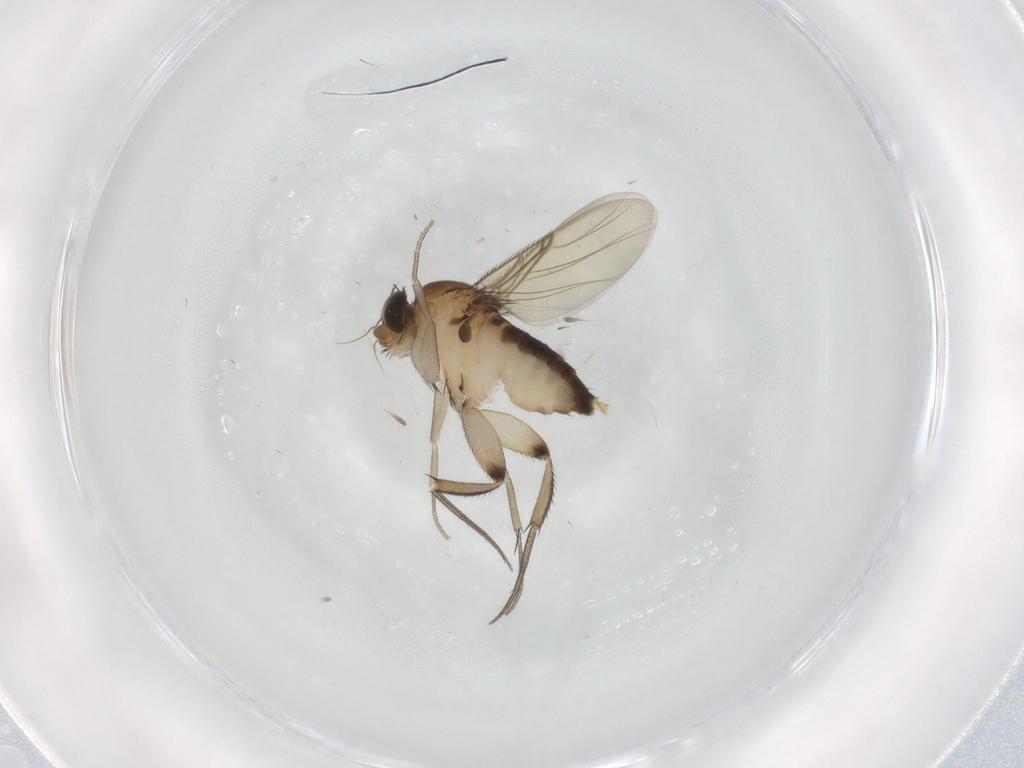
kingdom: Animalia
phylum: Arthropoda
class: Insecta
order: Diptera
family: Phoridae
